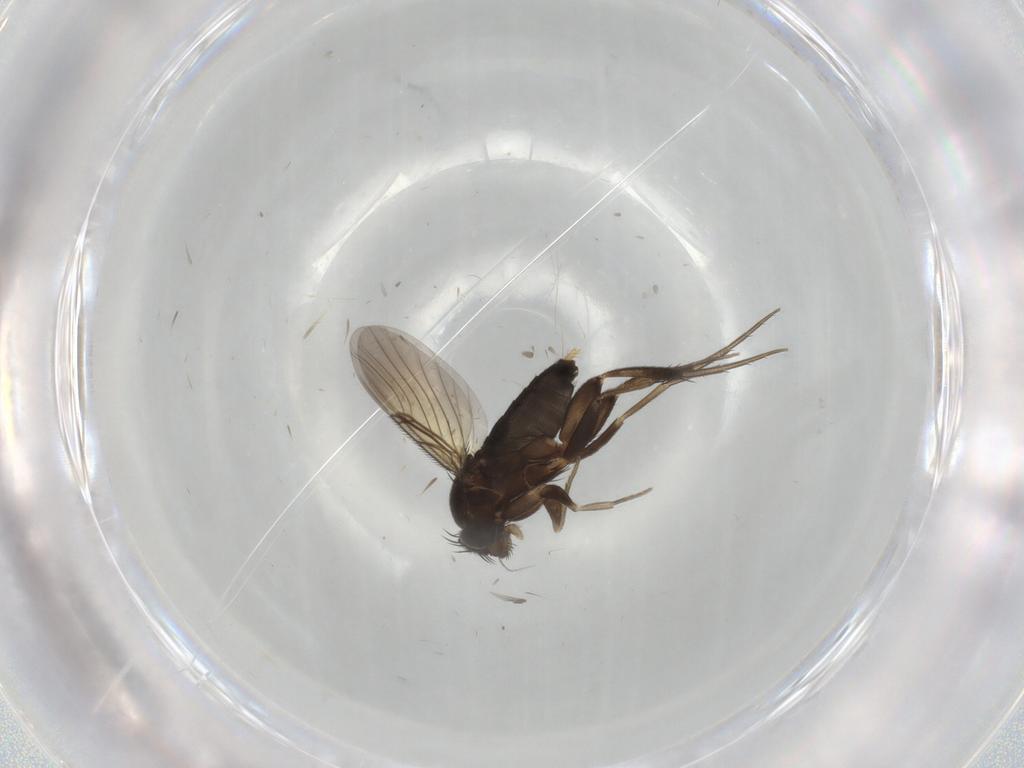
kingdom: Animalia
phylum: Arthropoda
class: Insecta
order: Diptera
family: Phoridae
